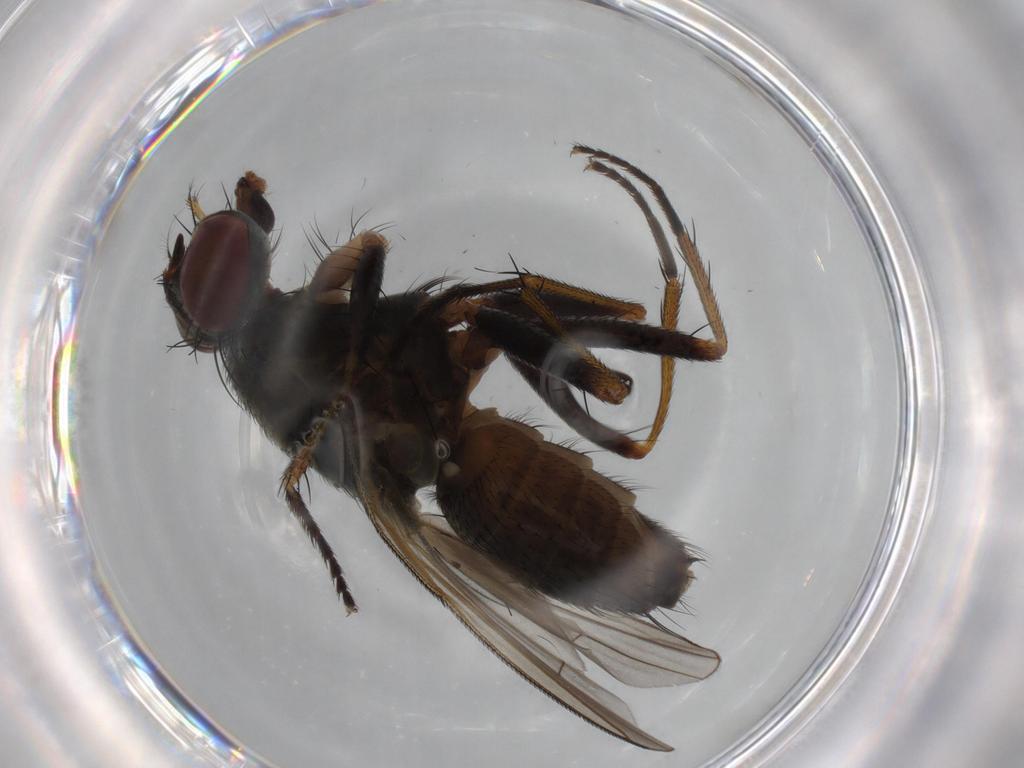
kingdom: Animalia
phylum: Arthropoda
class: Insecta
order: Diptera
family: Muscidae
